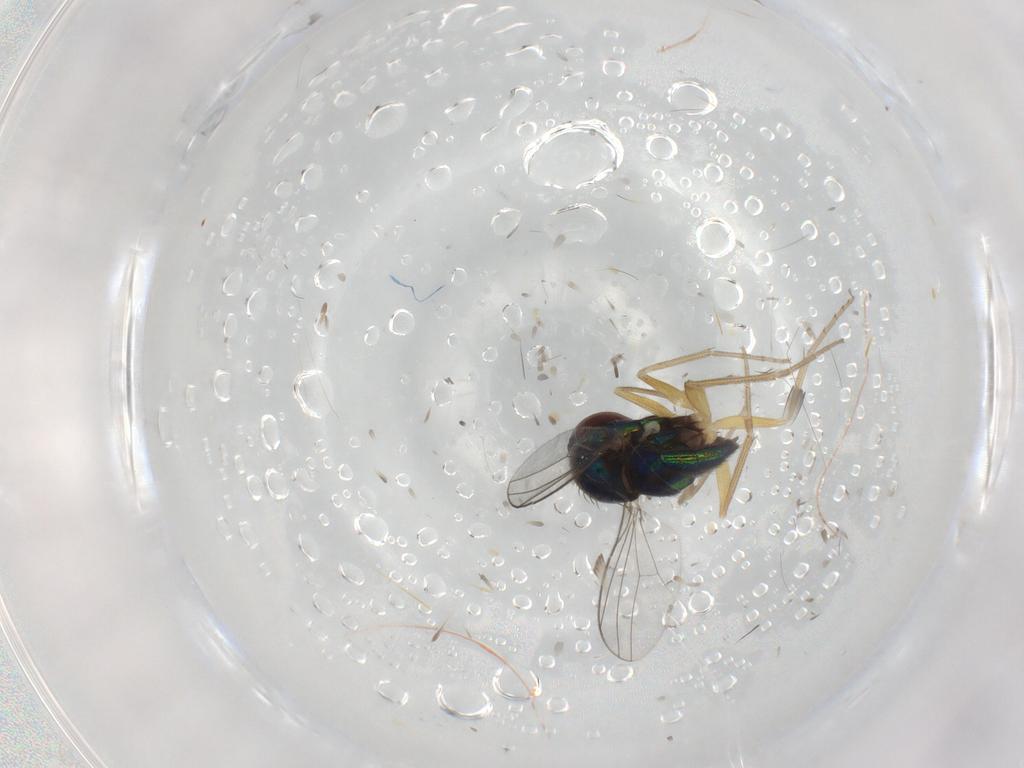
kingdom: Animalia
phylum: Arthropoda
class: Insecta
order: Diptera
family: Dolichopodidae
